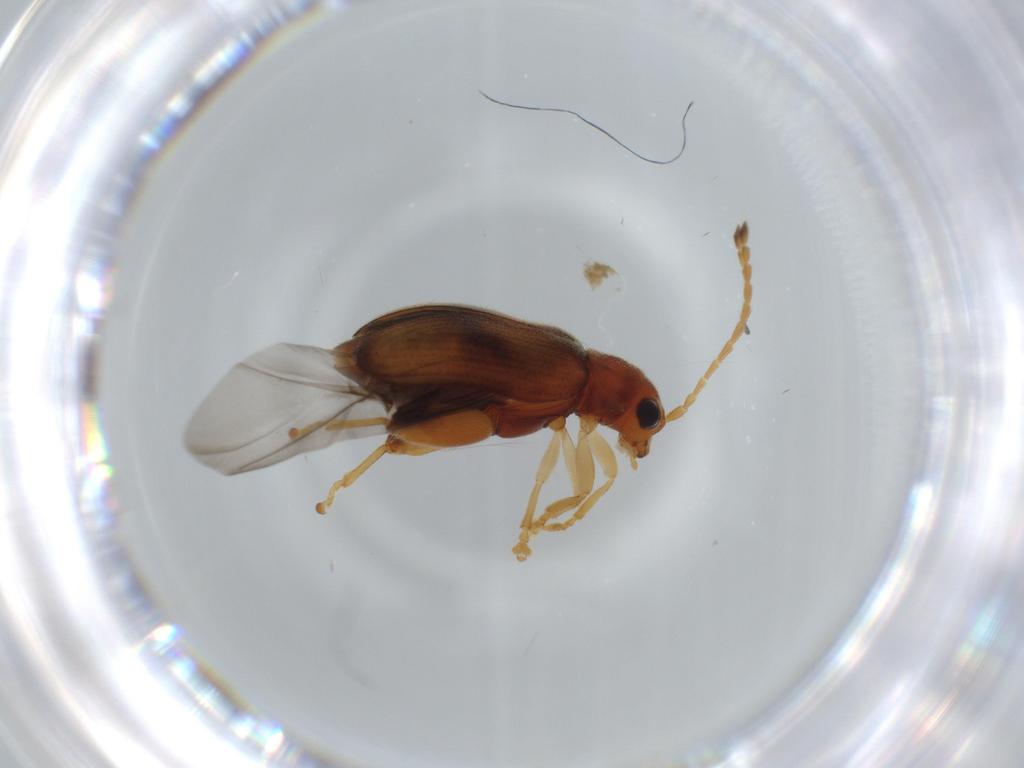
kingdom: Animalia
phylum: Arthropoda
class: Insecta
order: Coleoptera
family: Chrysomelidae
